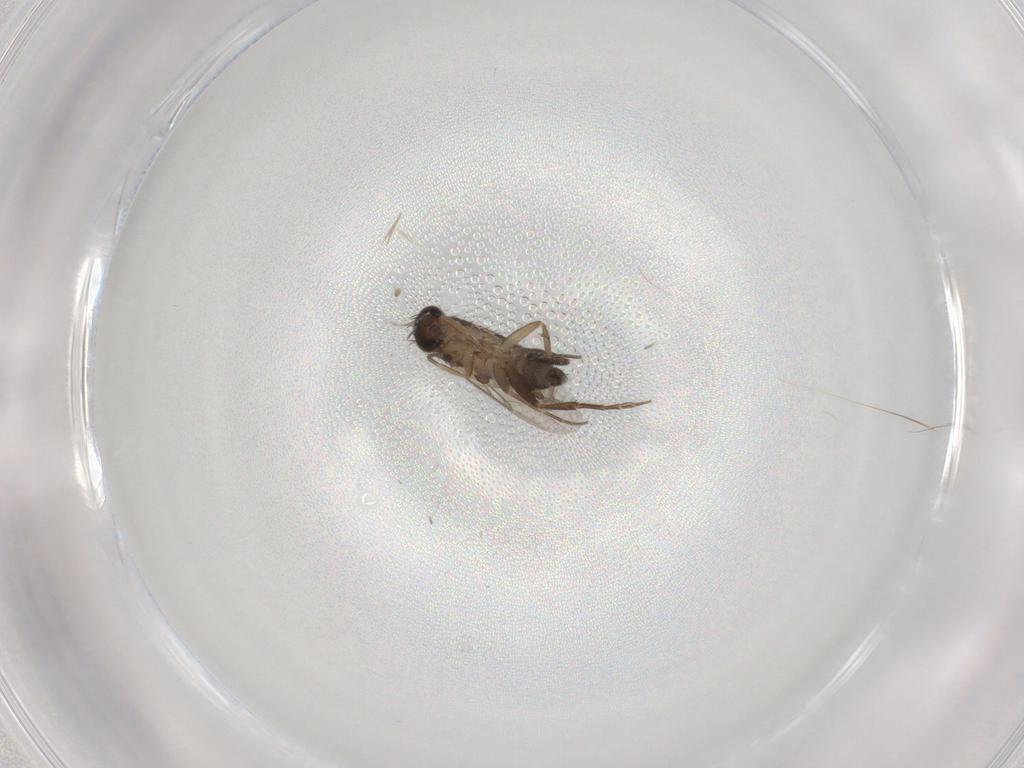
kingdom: Animalia
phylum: Arthropoda
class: Insecta
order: Diptera
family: Phoridae
